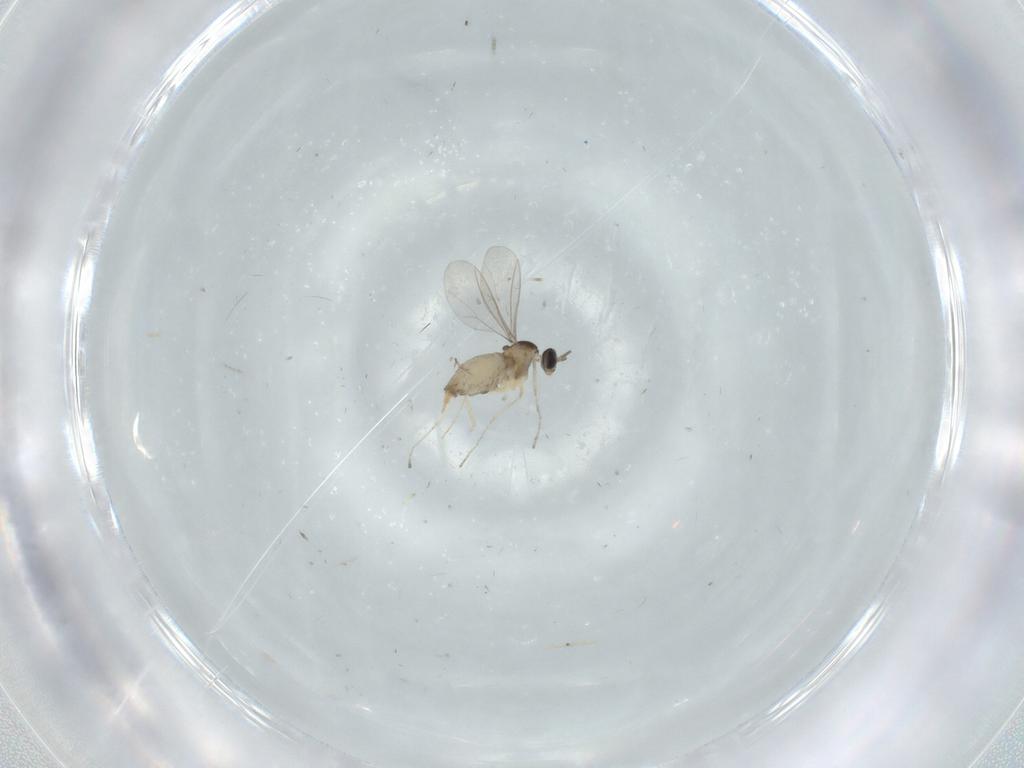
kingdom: Animalia
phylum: Arthropoda
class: Insecta
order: Diptera
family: Cecidomyiidae
